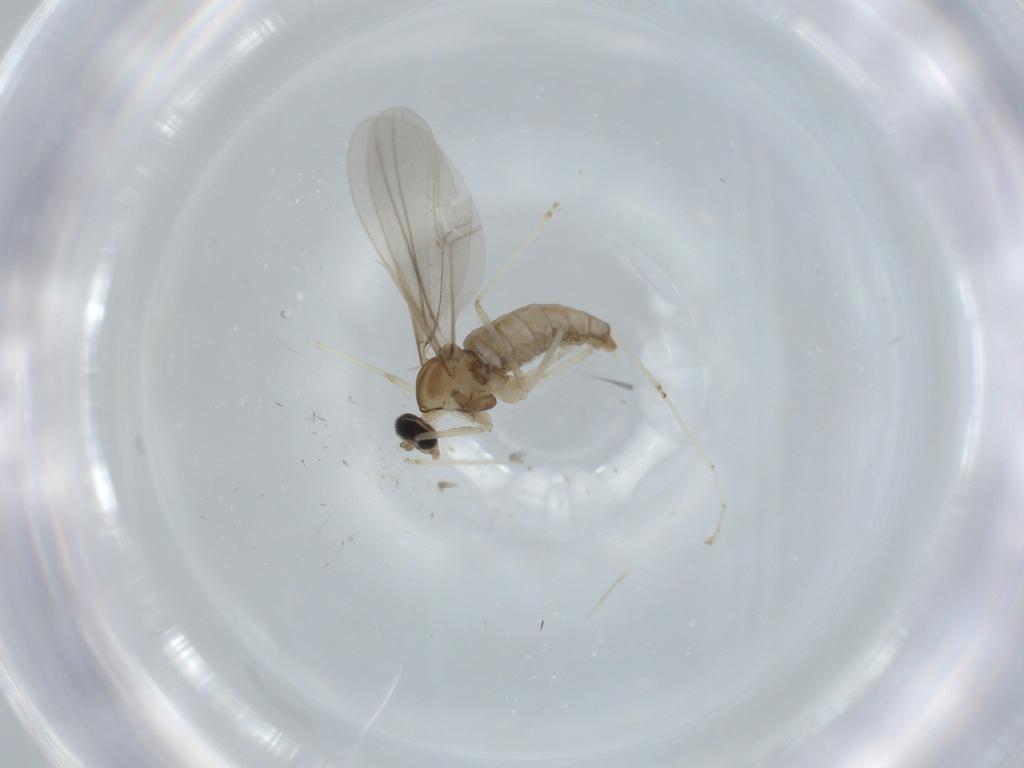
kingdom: Animalia
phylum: Arthropoda
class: Insecta
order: Diptera
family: Cecidomyiidae
